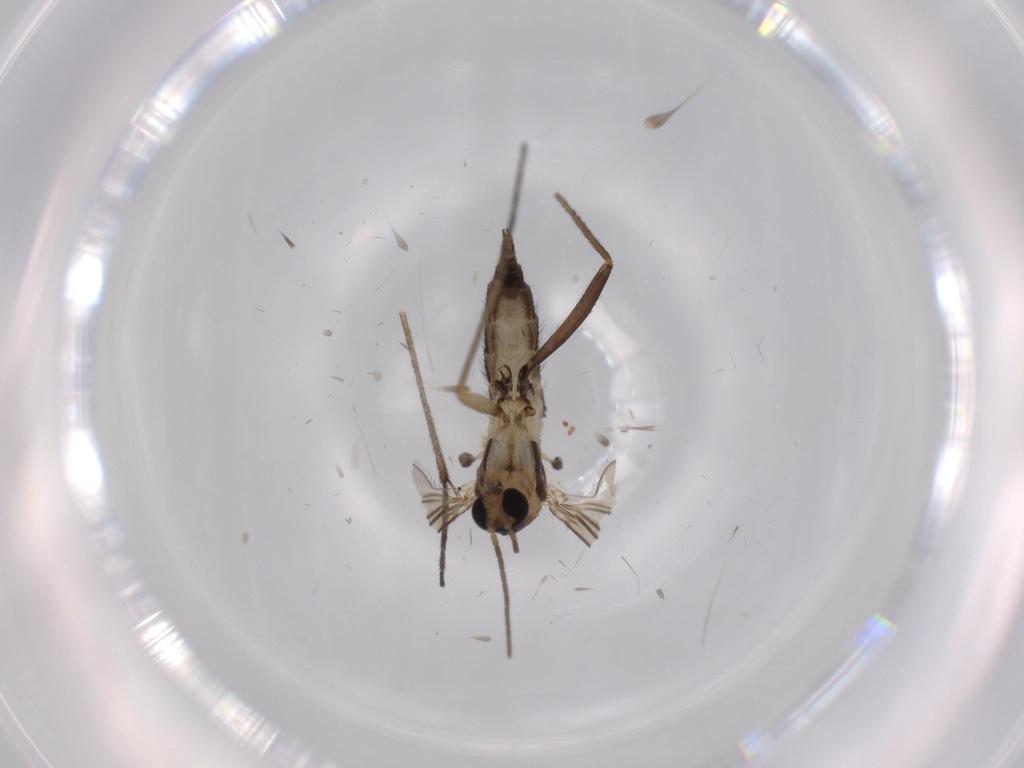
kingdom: Animalia
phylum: Arthropoda
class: Insecta
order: Diptera
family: Sciaridae
